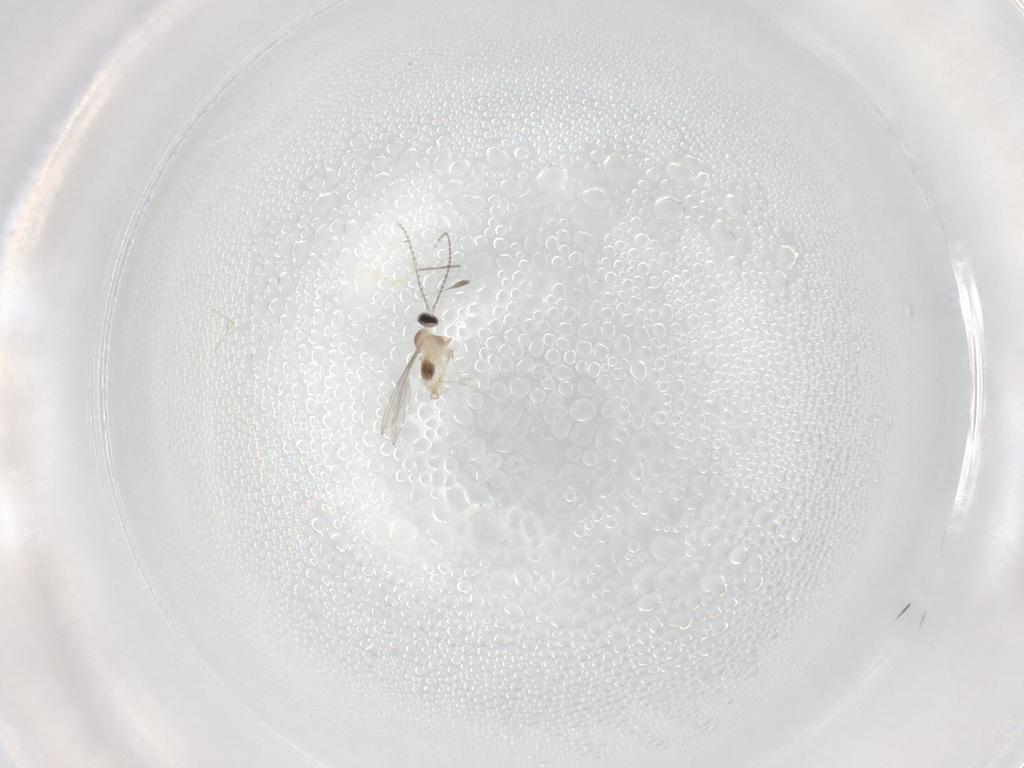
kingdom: Animalia
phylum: Arthropoda
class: Insecta
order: Diptera
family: Cecidomyiidae
